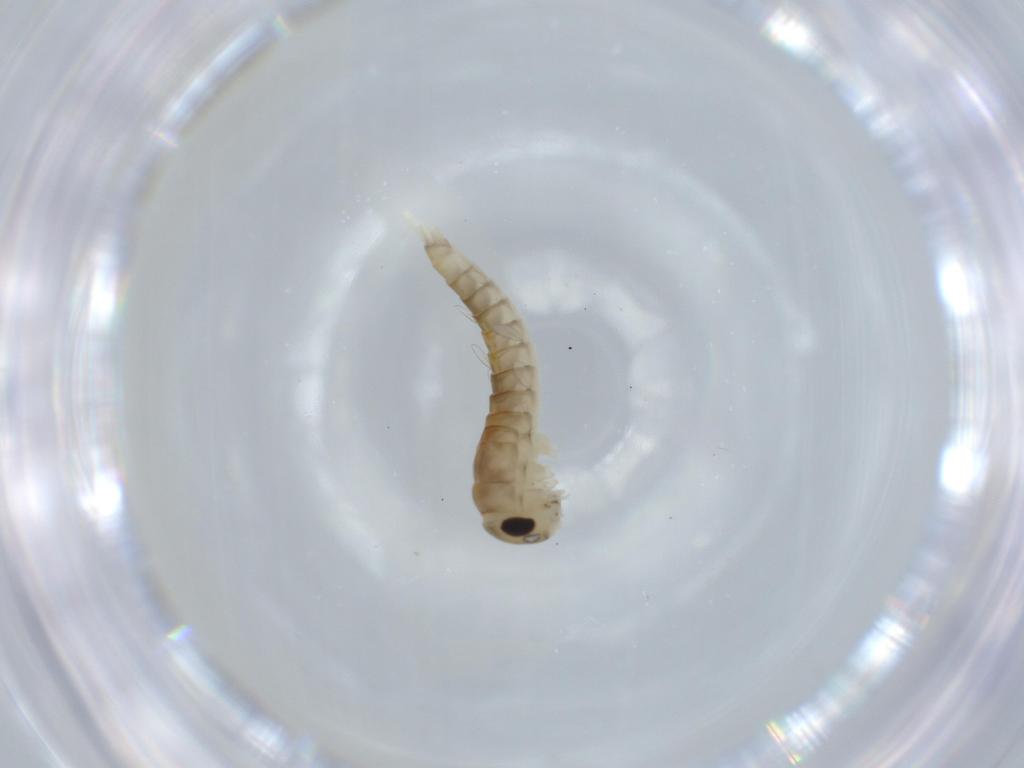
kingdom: Animalia
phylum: Arthropoda
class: Insecta
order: Ephemeroptera
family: Baetidae
